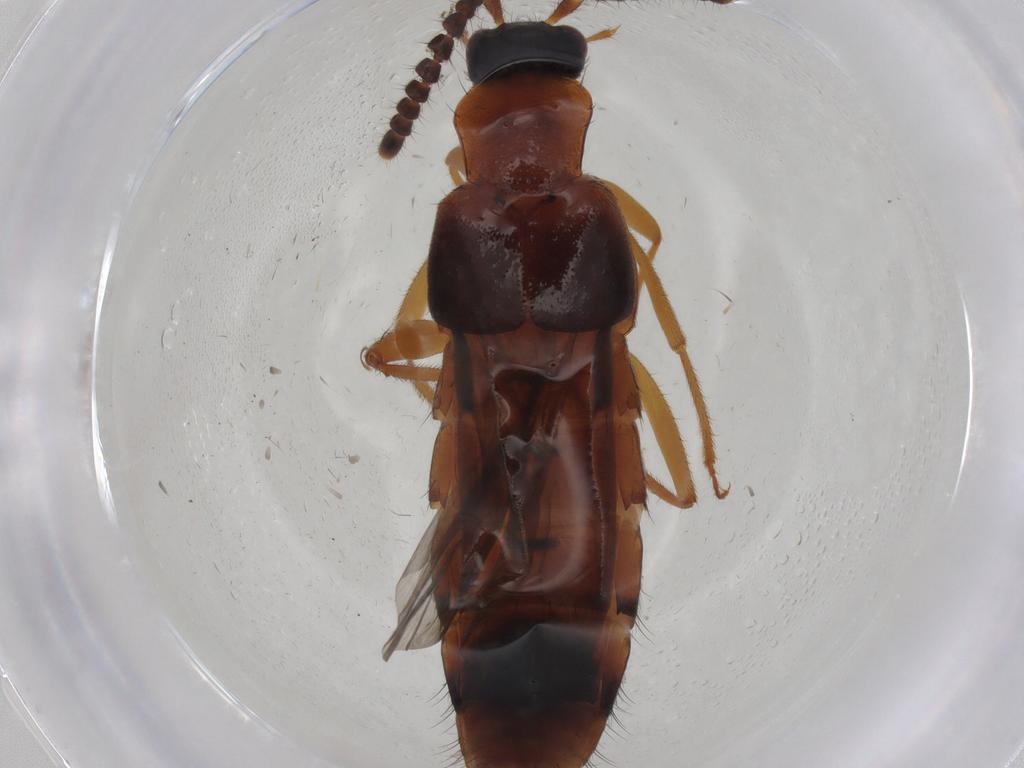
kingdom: Animalia
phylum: Arthropoda
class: Insecta
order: Coleoptera
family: Staphylinidae
